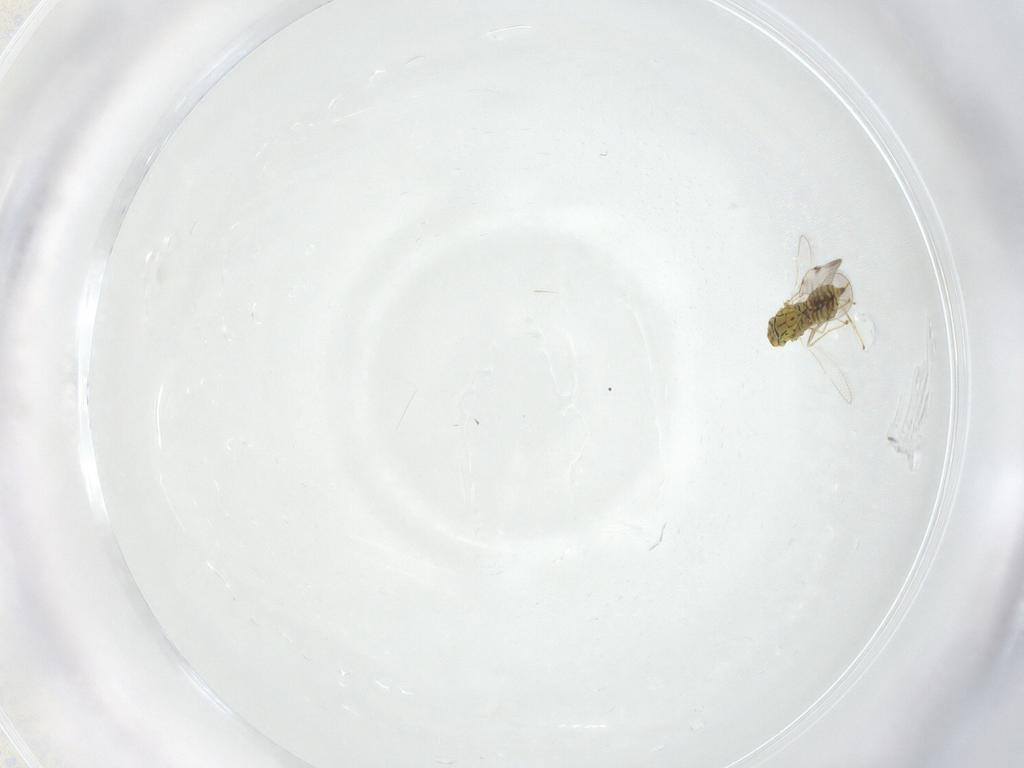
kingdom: Animalia
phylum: Arthropoda
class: Insecta
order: Hymenoptera
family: Eulophidae
